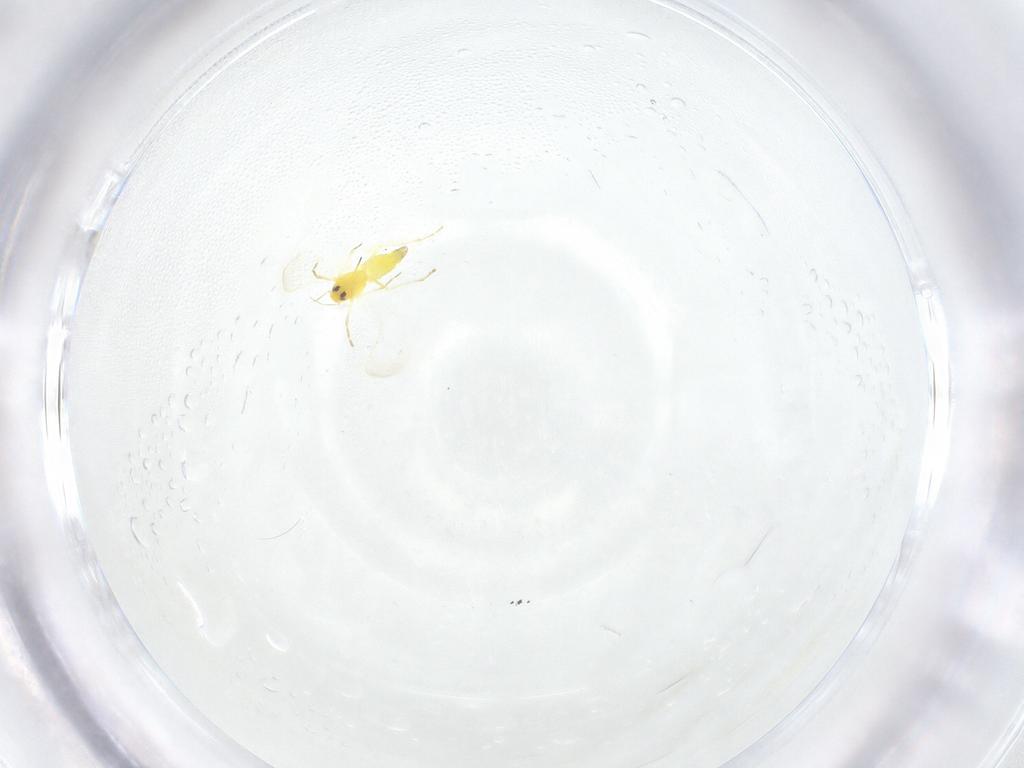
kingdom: Animalia
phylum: Arthropoda
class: Insecta
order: Hemiptera
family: Aleyrodidae
